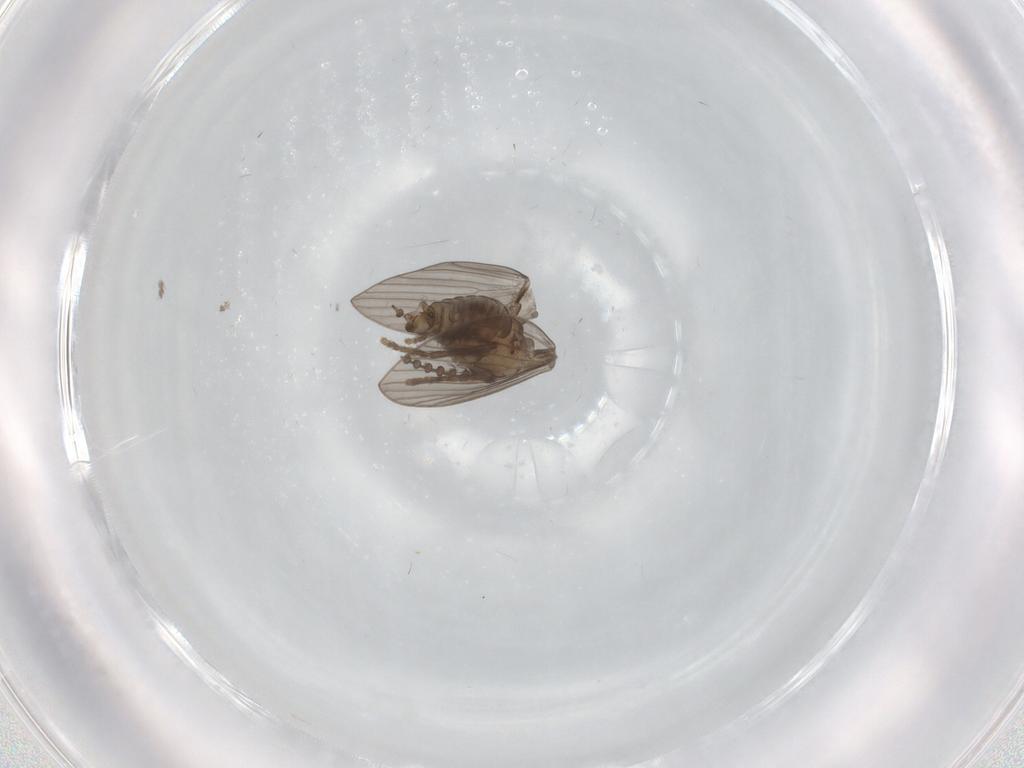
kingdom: Animalia
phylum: Arthropoda
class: Insecta
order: Diptera
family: Psychodidae
